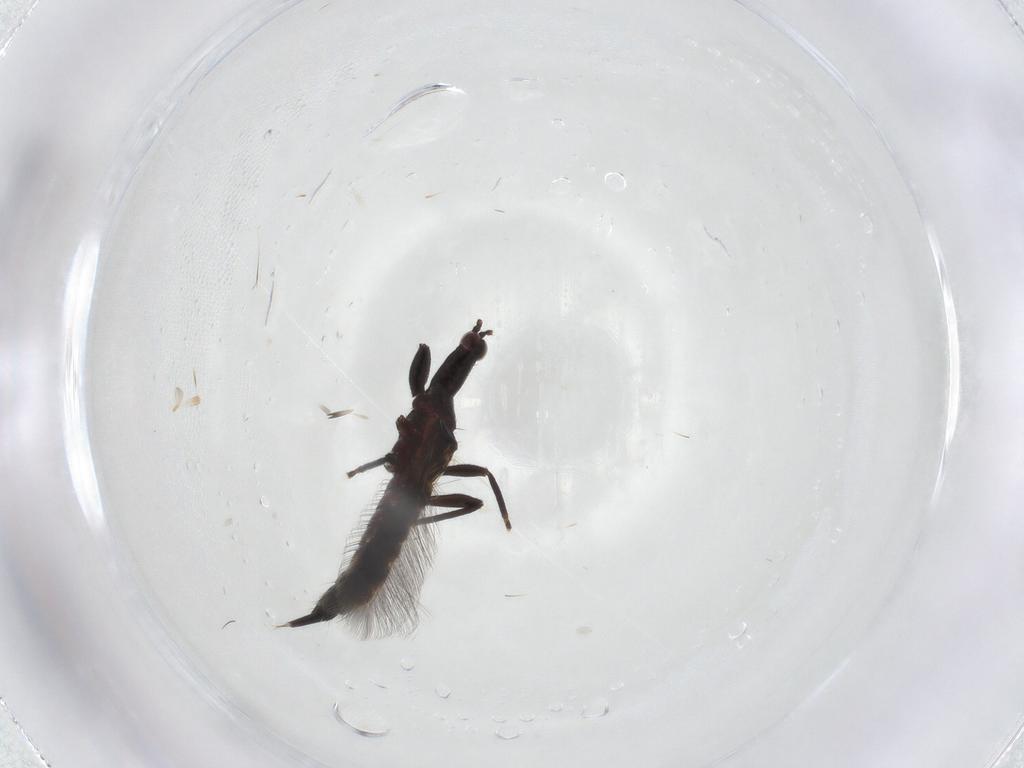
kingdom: Animalia
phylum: Arthropoda
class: Insecta
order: Thysanoptera
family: Phlaeothripidae
